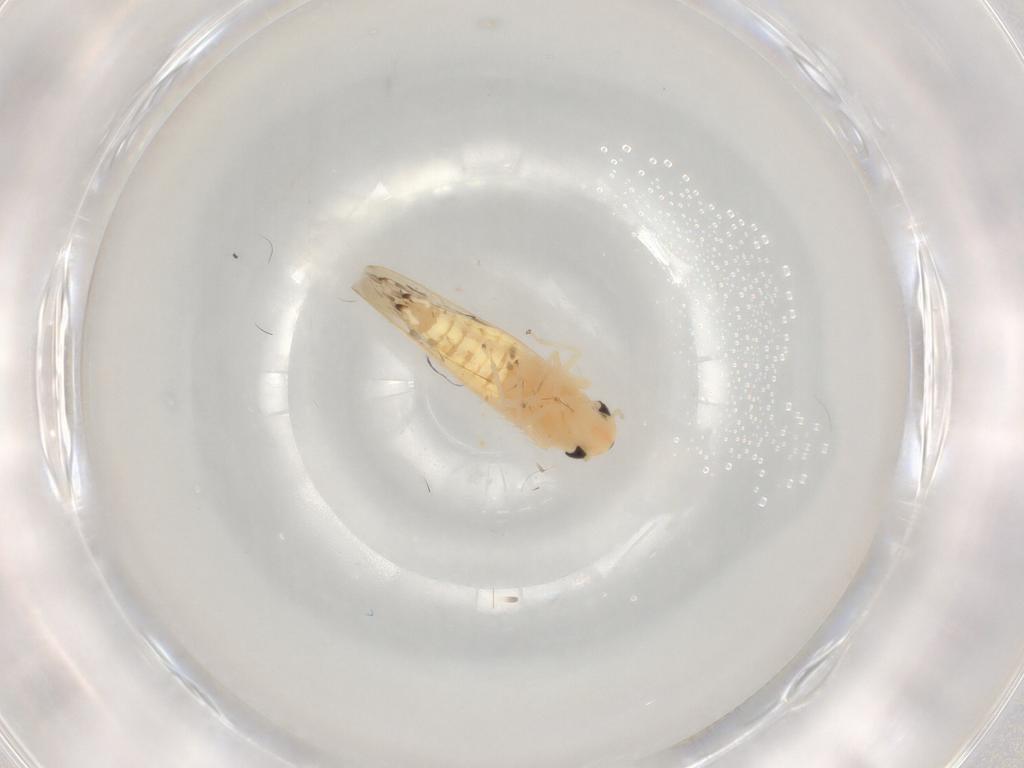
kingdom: Animalia
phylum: Arthropoda
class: Insecta
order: Hemiptera
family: Cicadellidae
